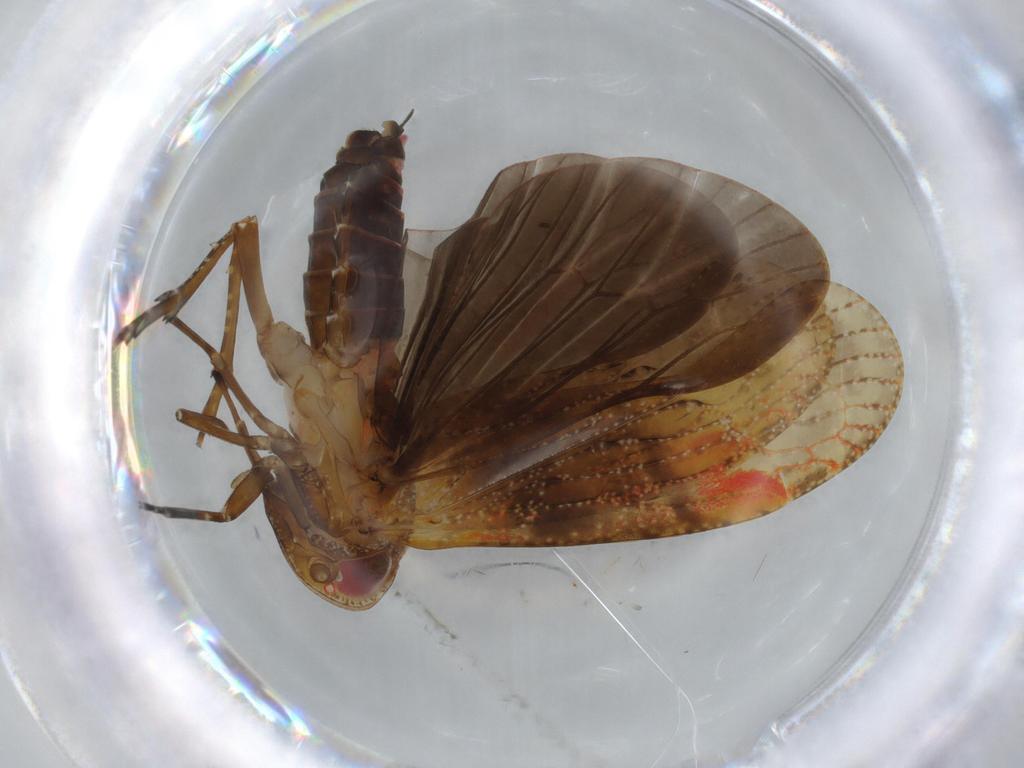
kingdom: Animalia
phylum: Arthropoda
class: Insecta
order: Hemiptera
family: Achilidae
